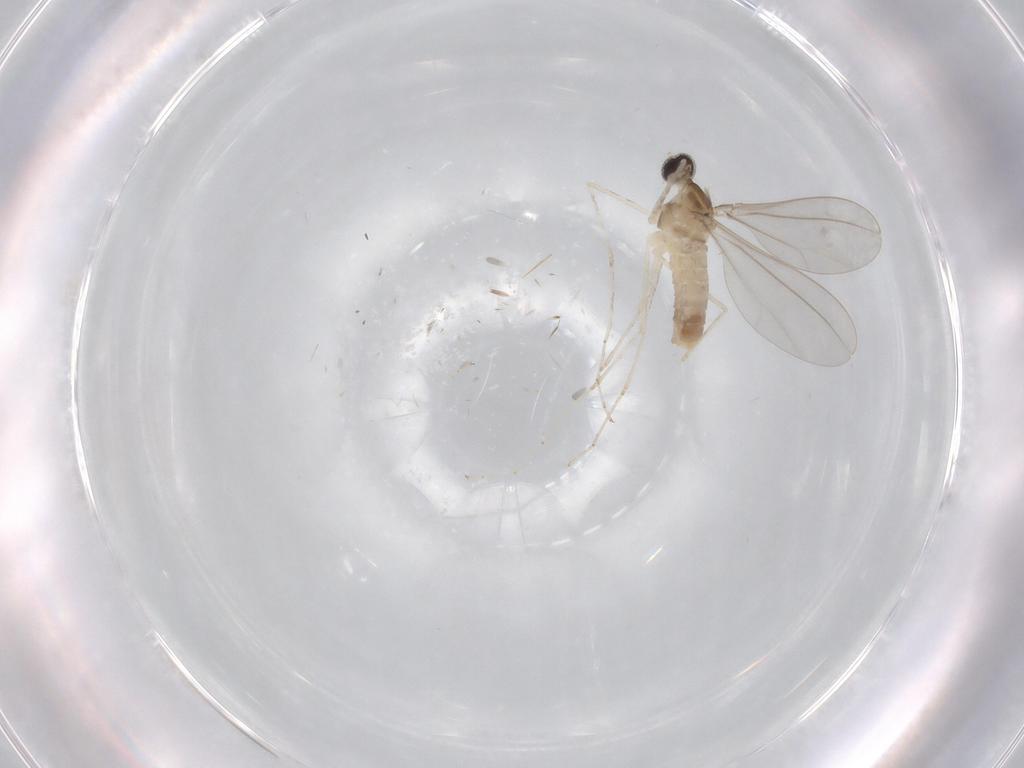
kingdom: Animalia
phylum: Arthropoda
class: Insecta
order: Diptera
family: Cecidomyiidae
